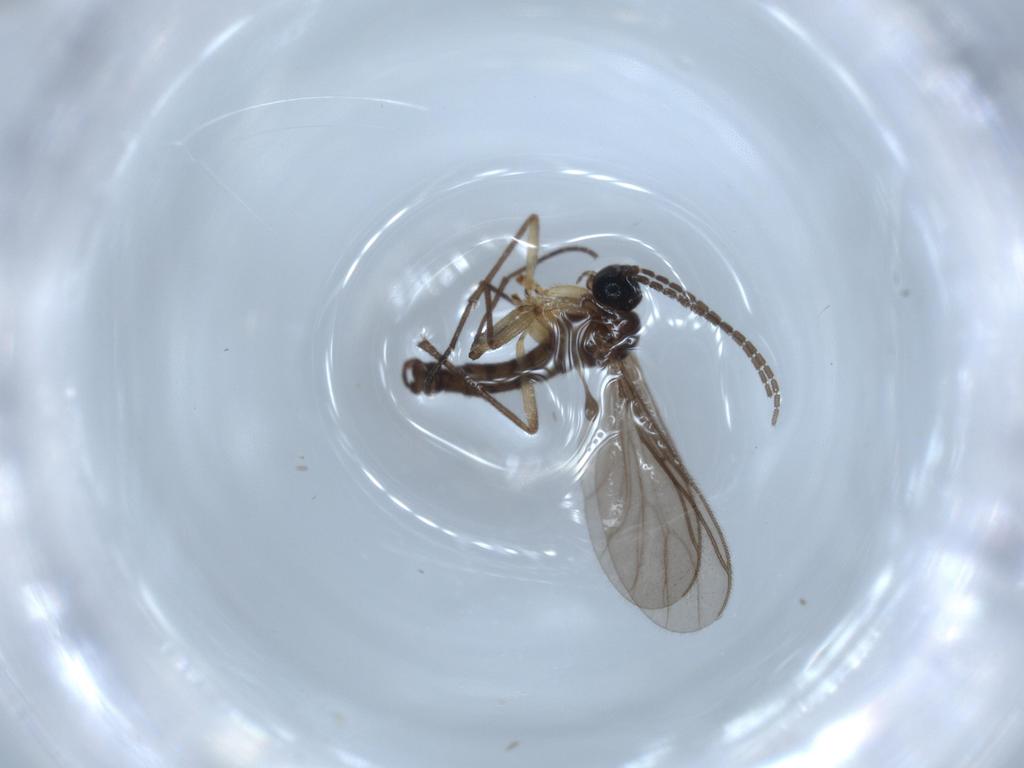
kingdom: Animalia
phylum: Arthropoda
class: Insecta
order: Diptera
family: Sciaridae
